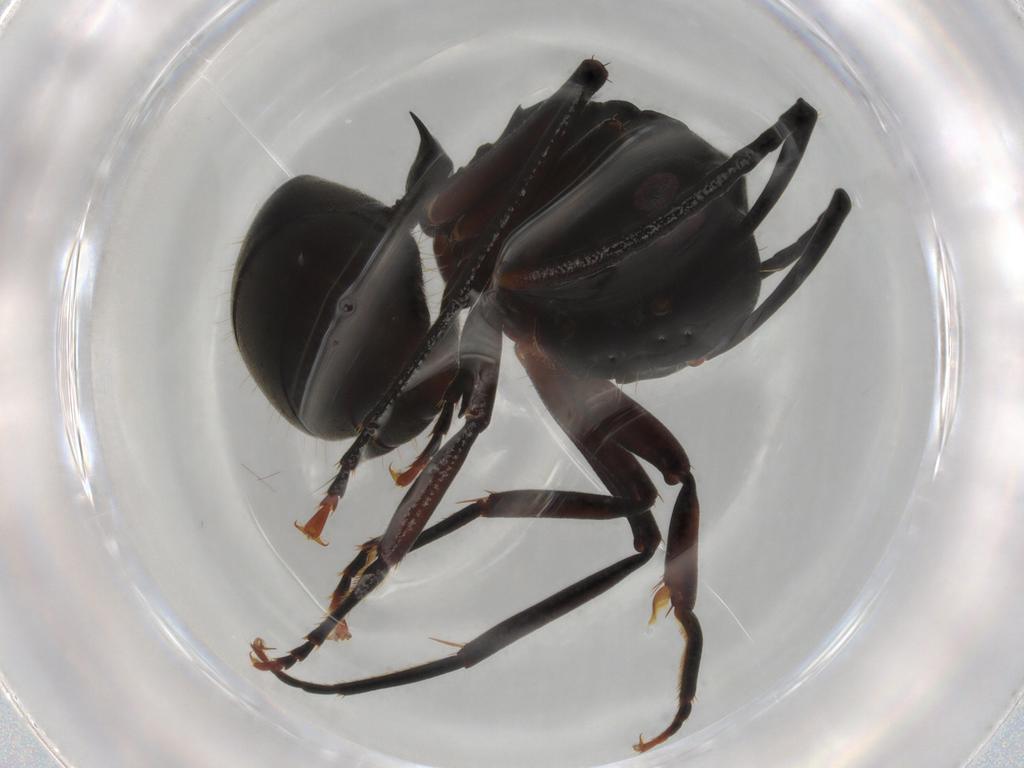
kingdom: Animalia
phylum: Arthropoda
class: Insecta
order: Hymenoptera
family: Formicidae
